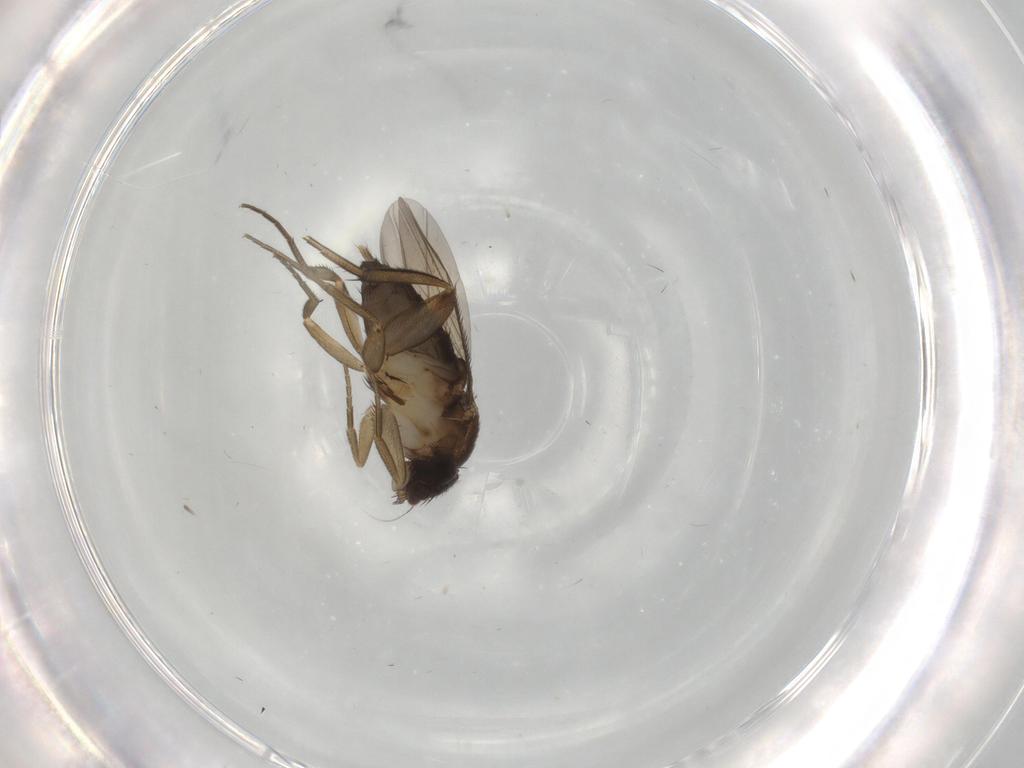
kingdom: Animalia
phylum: Arthropoda
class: Insecta
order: Diptera
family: Phoridae
